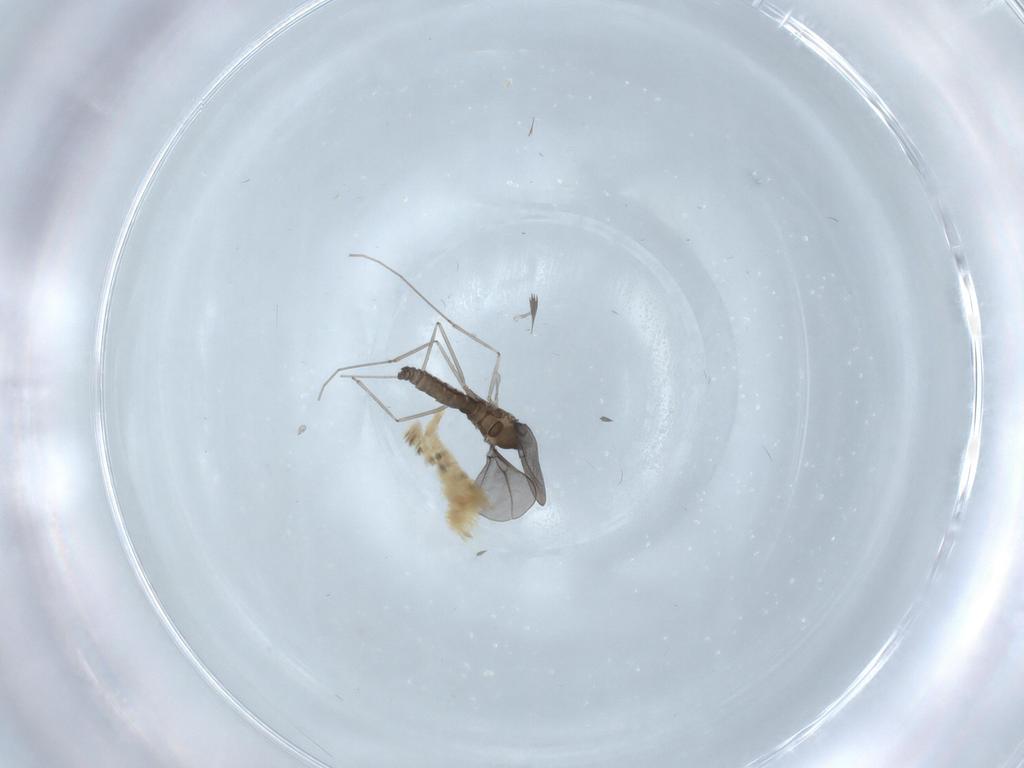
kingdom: Animalia
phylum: Arthropoda
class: Insecta
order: Diptera
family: Cecidomyiidae
